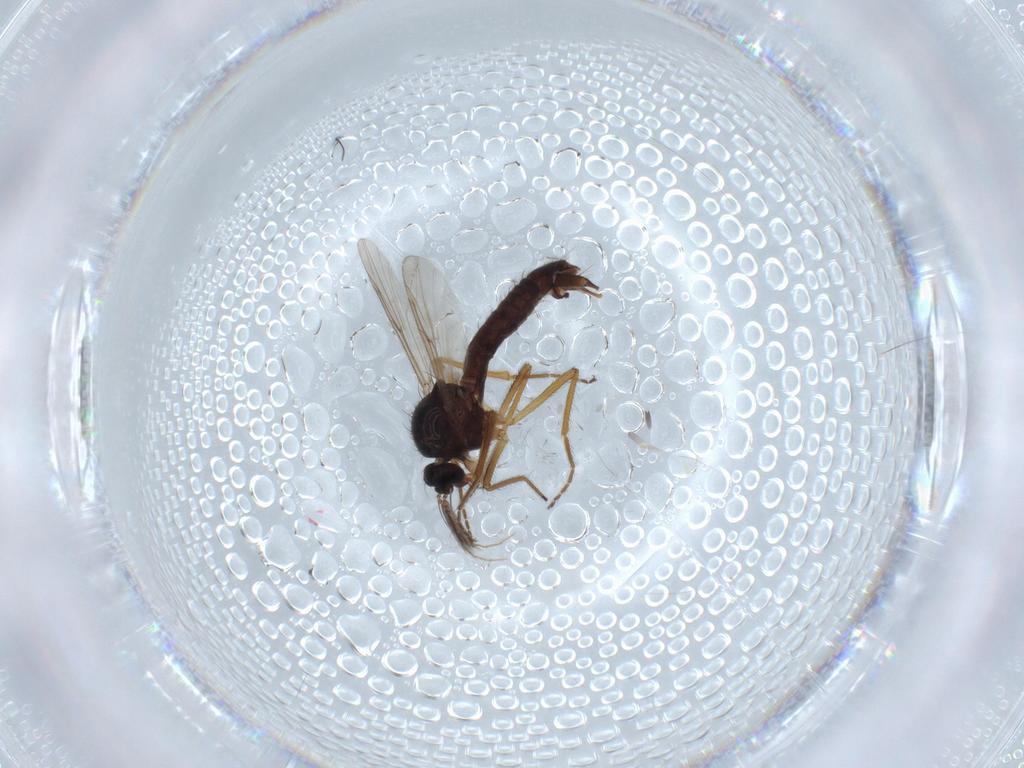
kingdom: Animalia
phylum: Arthropoda
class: Insecta
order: Diptera
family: Ceratopogonidae
